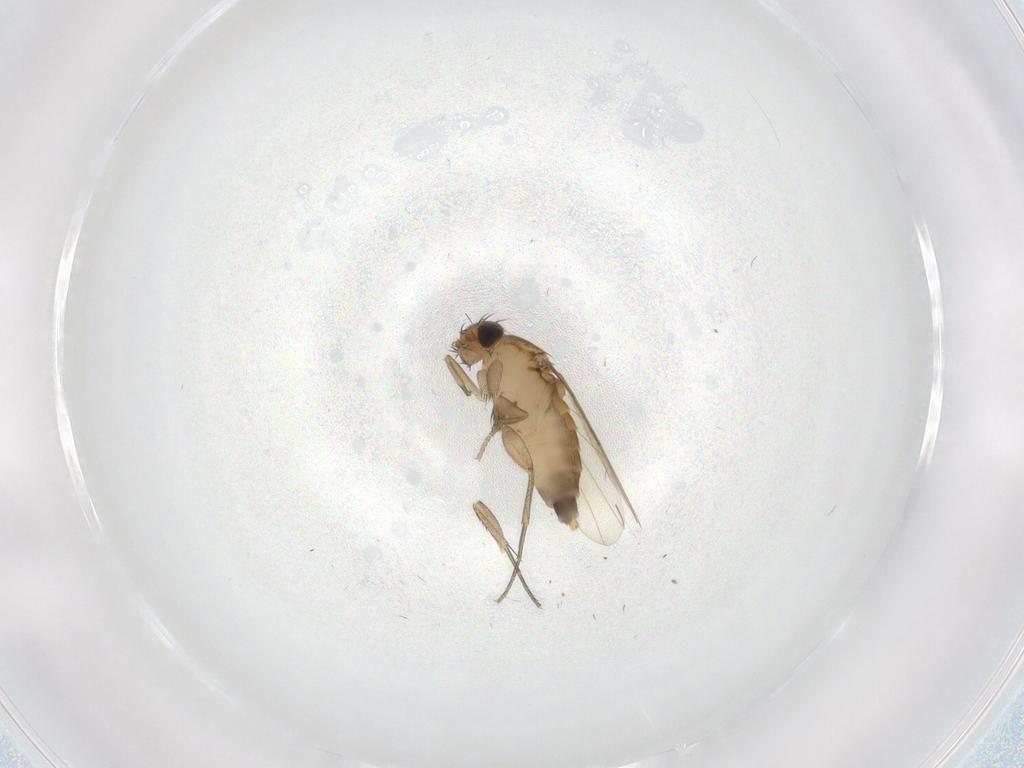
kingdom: Animalia
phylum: Arthropoda
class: Insecta
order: Diptera
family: Phoridae
